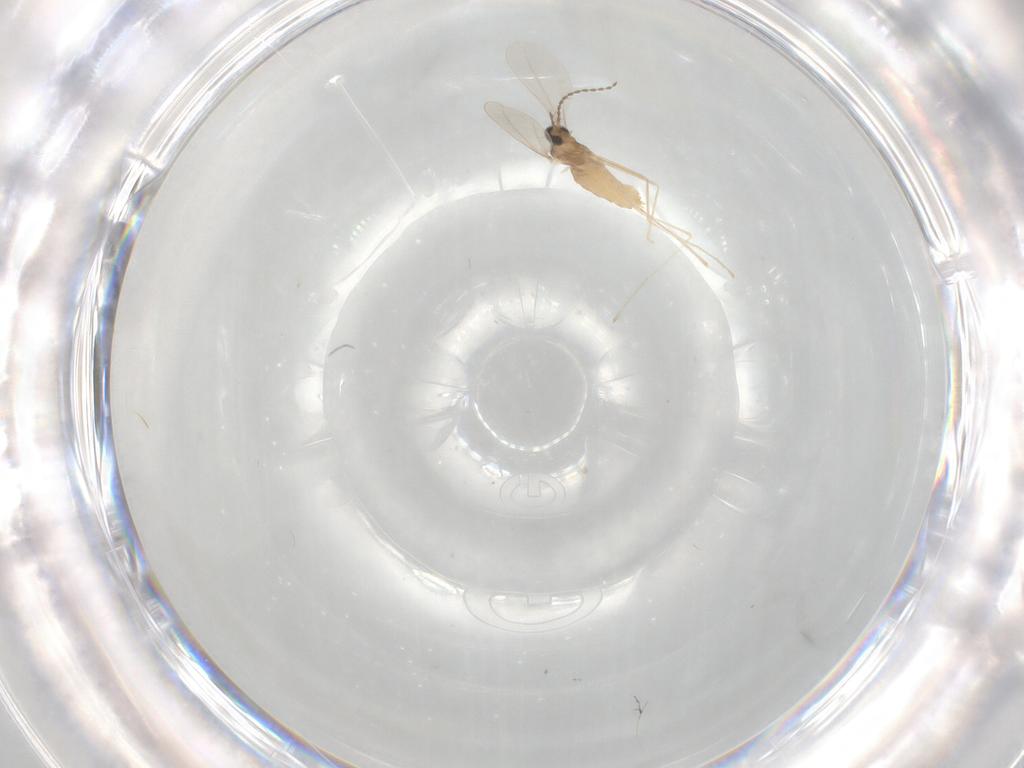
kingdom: Animalia
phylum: Arthropoda
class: Insecta
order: Diptera
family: Cecidomyiidae
